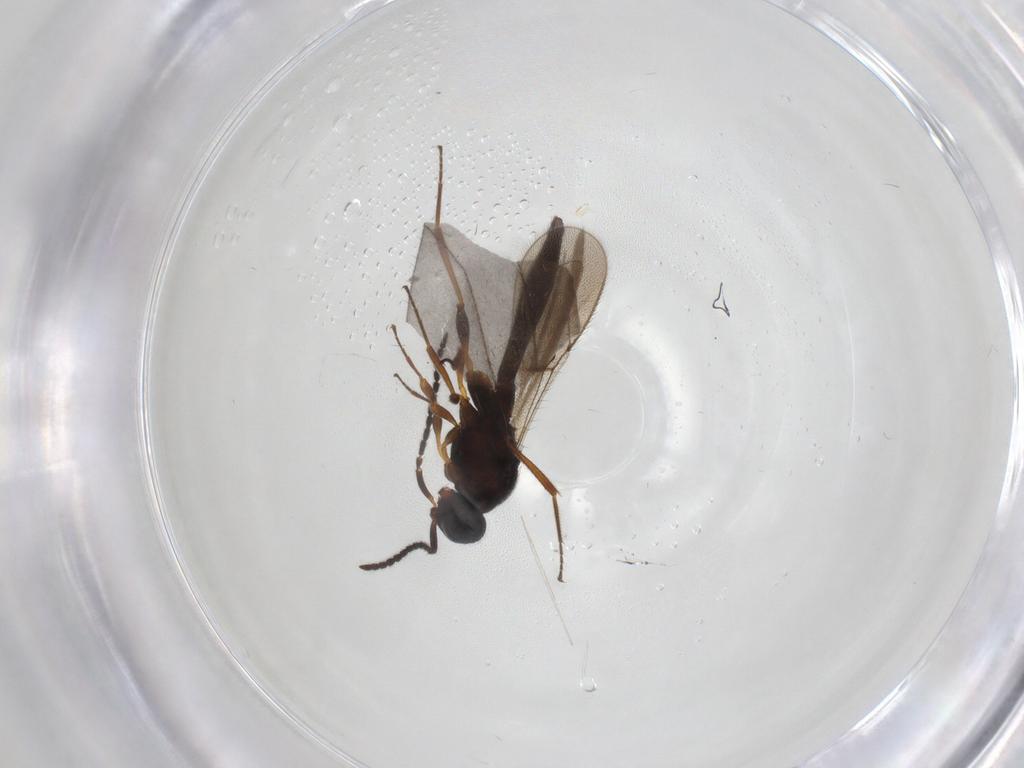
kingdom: Animalia
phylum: Arthropoda
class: Insecta
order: Hymenoptera
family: Scelionidae
